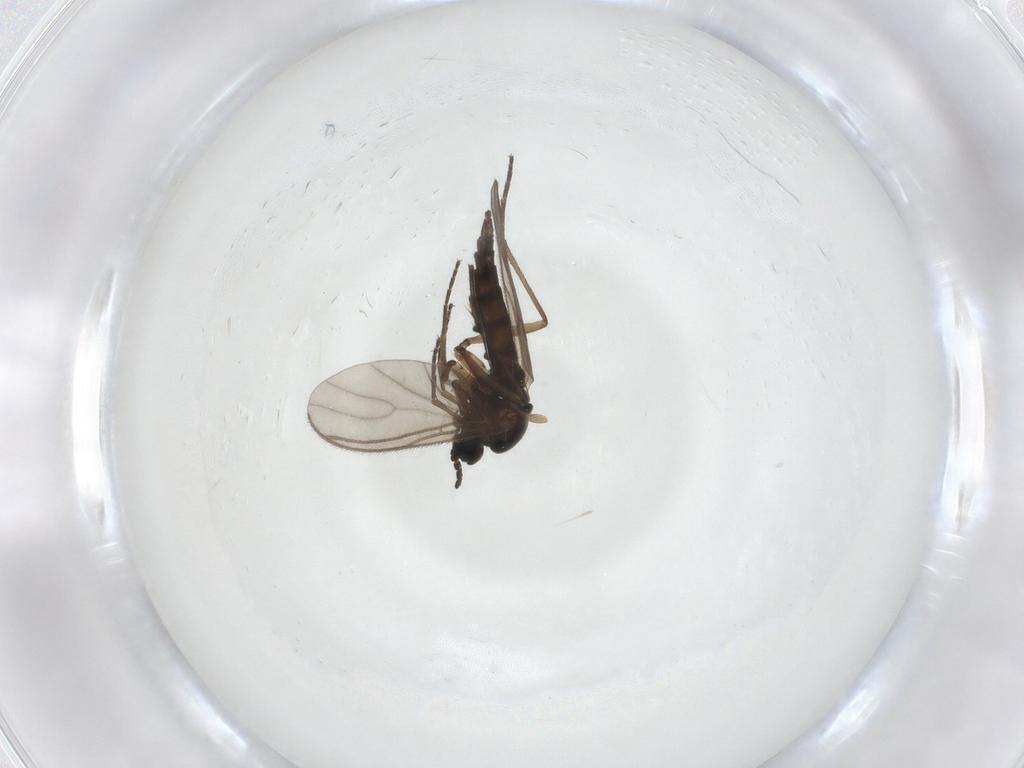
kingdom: Animalia
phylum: Arthropoda
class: Insecta
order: Diptera
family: Sciaridae
